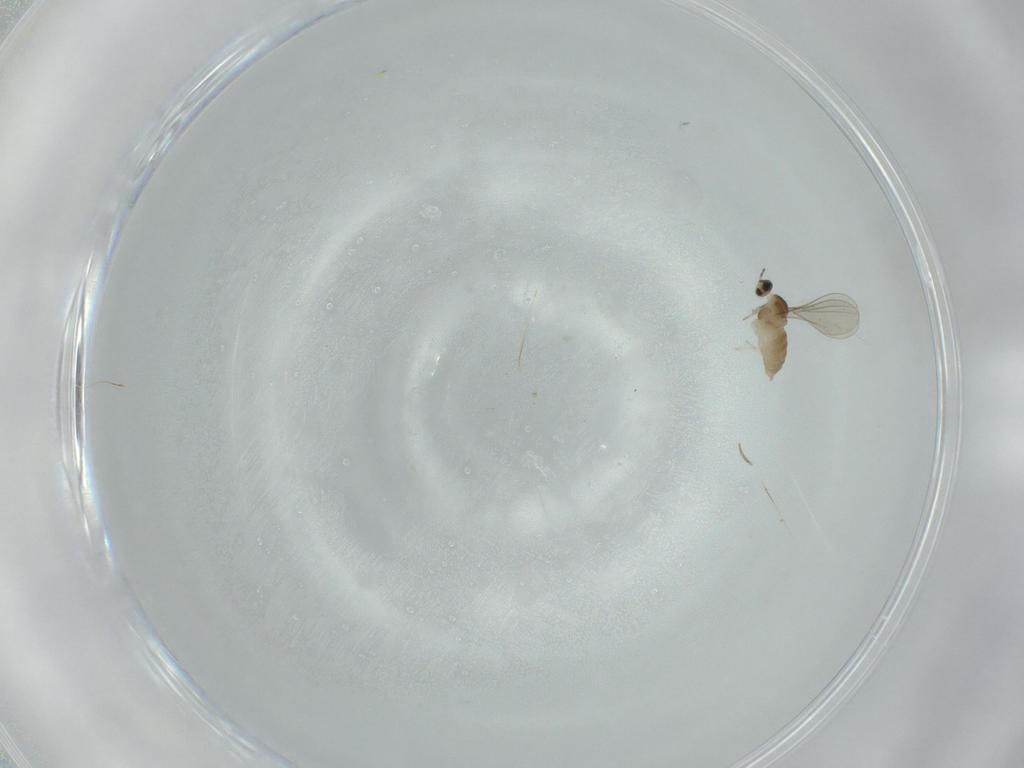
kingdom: Animalia
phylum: Arthropoda
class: Insecta
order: Diptera
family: Cecidomyiidae
